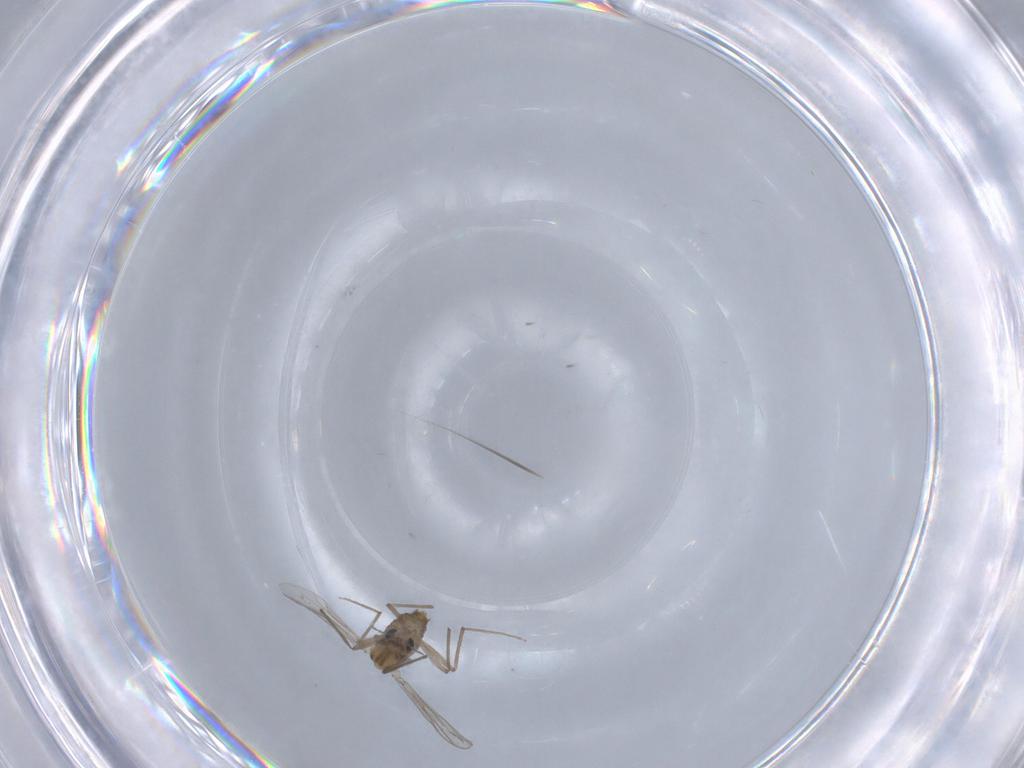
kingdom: Animalia
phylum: Arthropoda
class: Insecta
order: Diptera
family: Chironomidae
